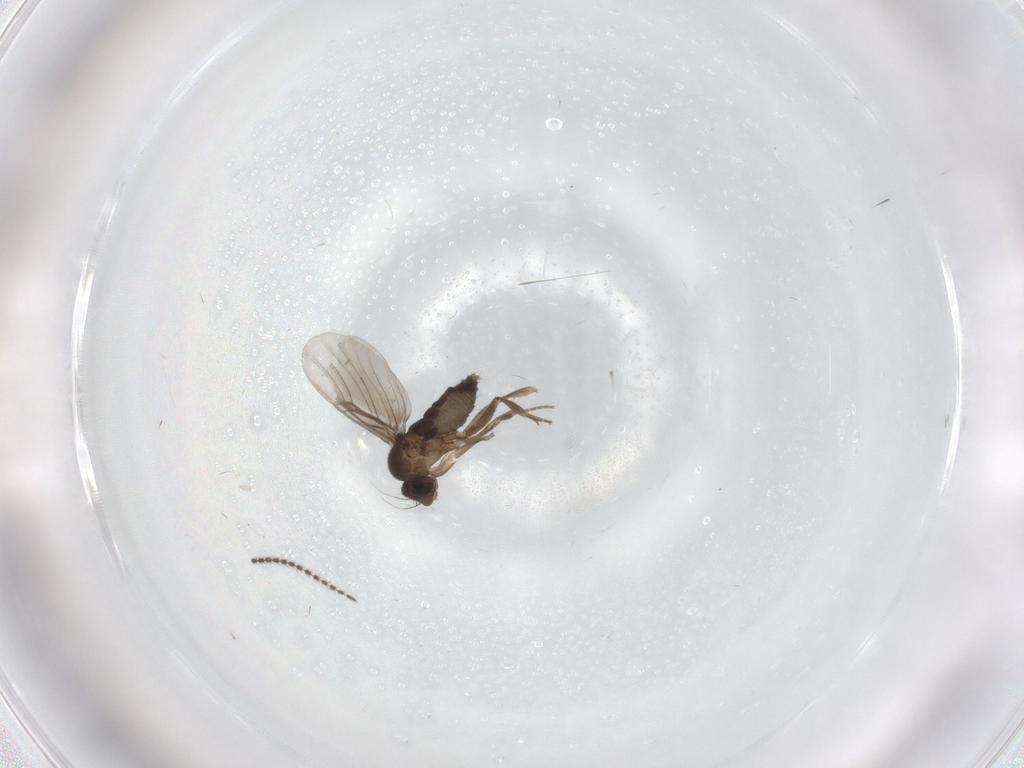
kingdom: Animalia
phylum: Arthropoda
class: Insecta
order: Diptera
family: Phoridae
